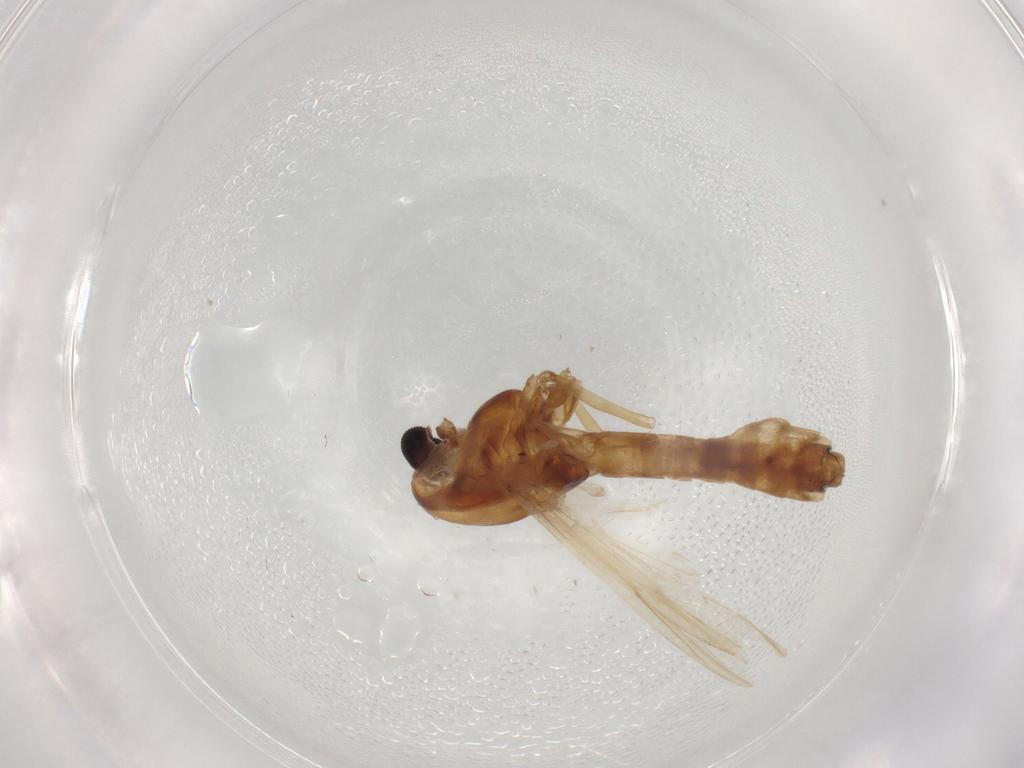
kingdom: Animalia
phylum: Arthropoda
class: Insecta
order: Diptera
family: Chironomidae
